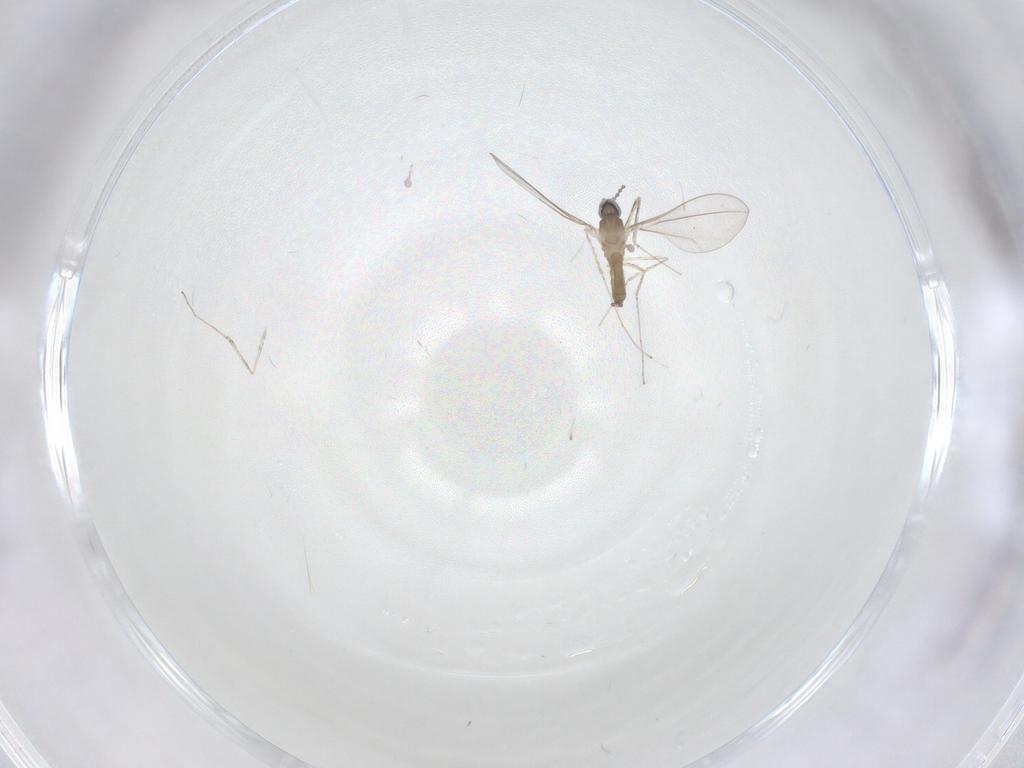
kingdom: Animalia
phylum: Arthropoda
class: Insecta
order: Diptera
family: Cecidomyiidae
